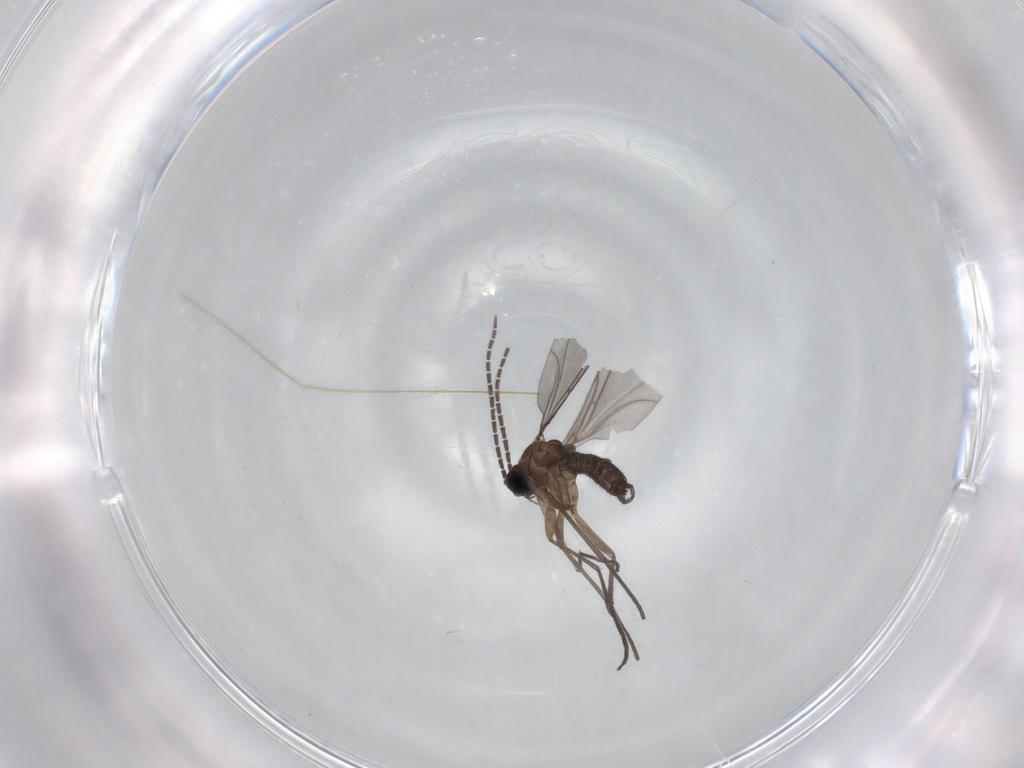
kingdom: Animalia
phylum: Arthropoda
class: Insecta
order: Diptera
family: Sciaridae
